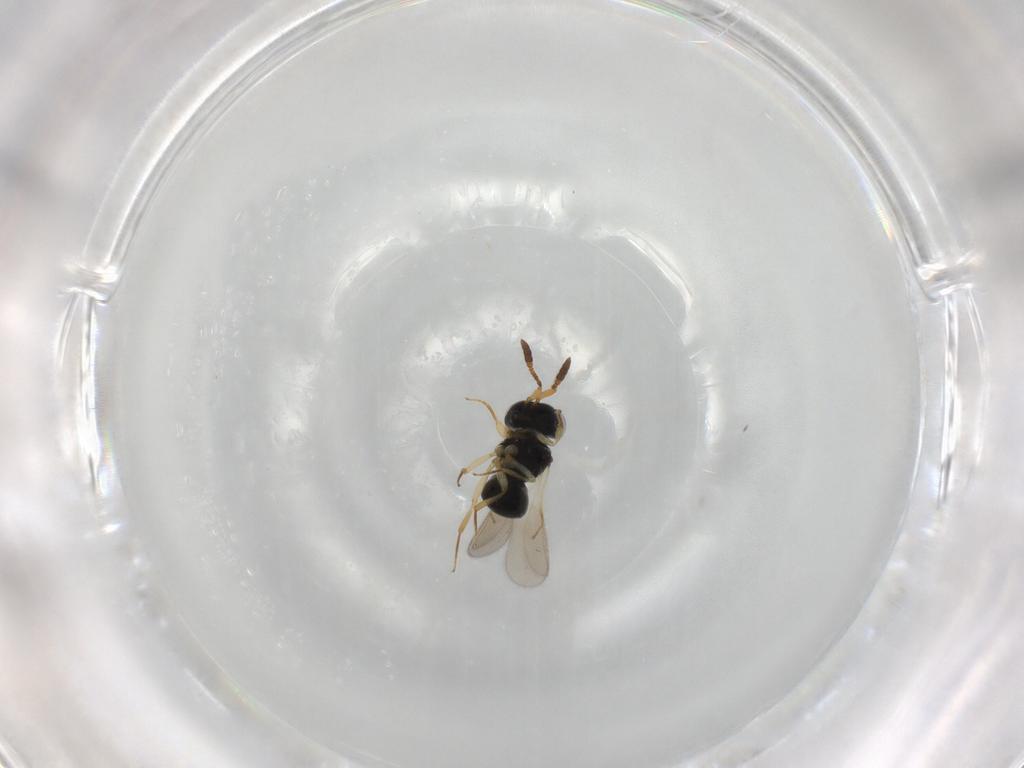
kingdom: Animalia
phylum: Arthropoda
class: Insecta
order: Hymenoptera
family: Scelionidae
